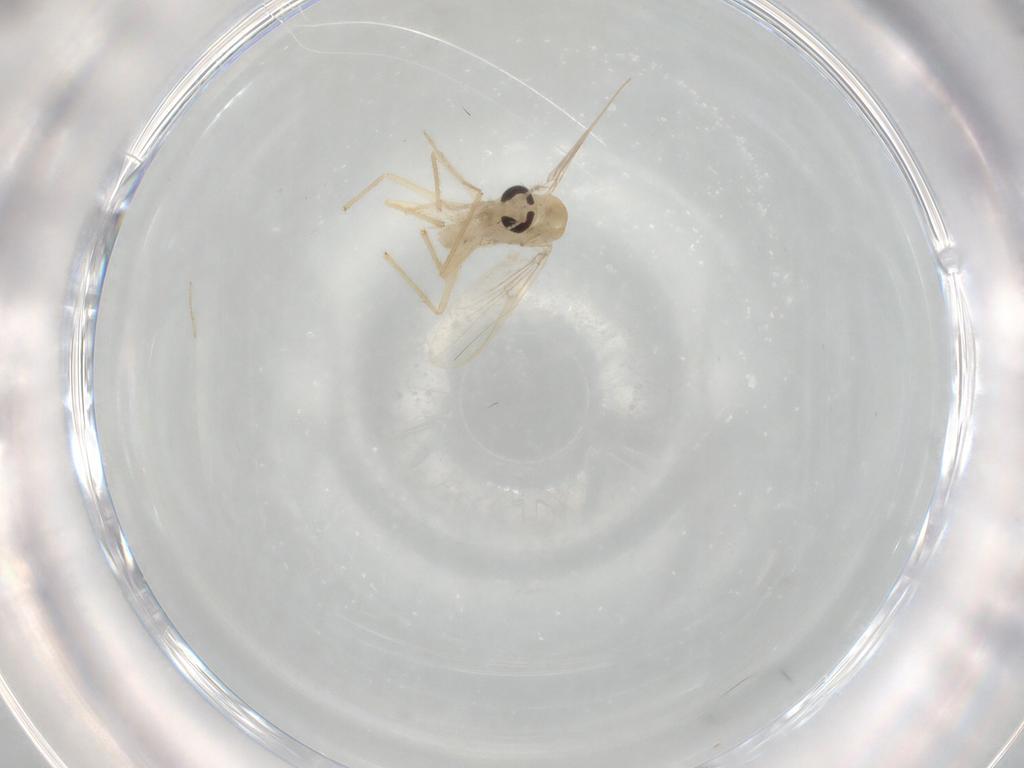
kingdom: Animalia
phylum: Arthropoda
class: Insecta
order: Diptera
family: Chironomidae
